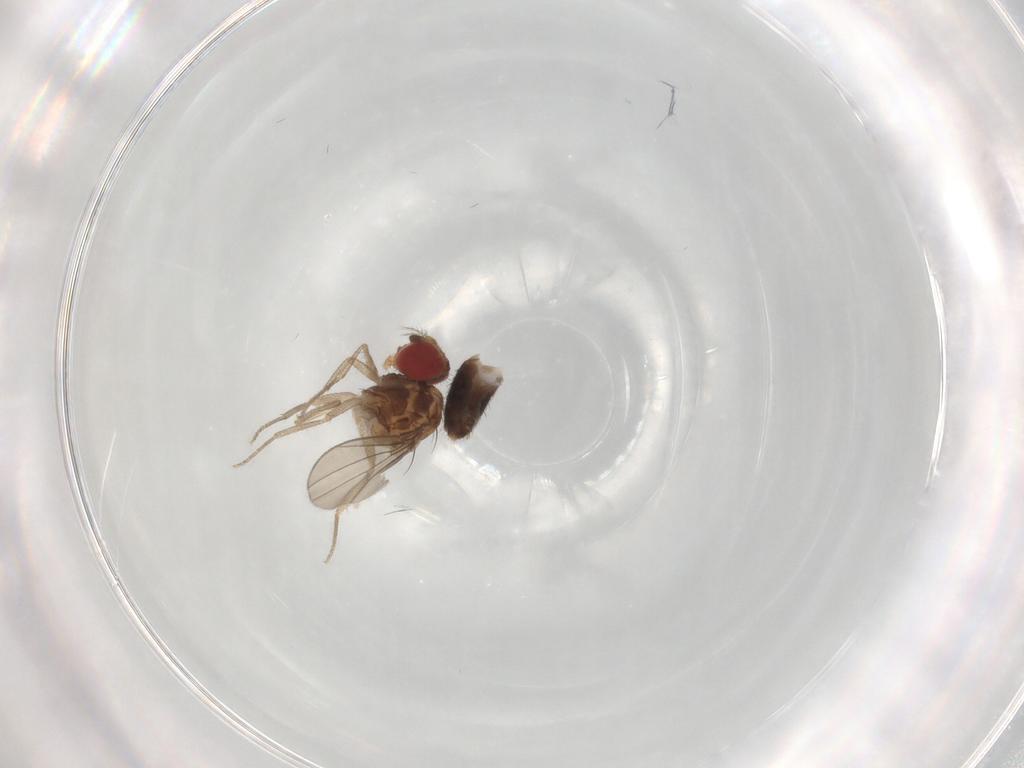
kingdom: Animalia
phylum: Arthropoda
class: Insecta
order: Diptera
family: Drosophilidae
